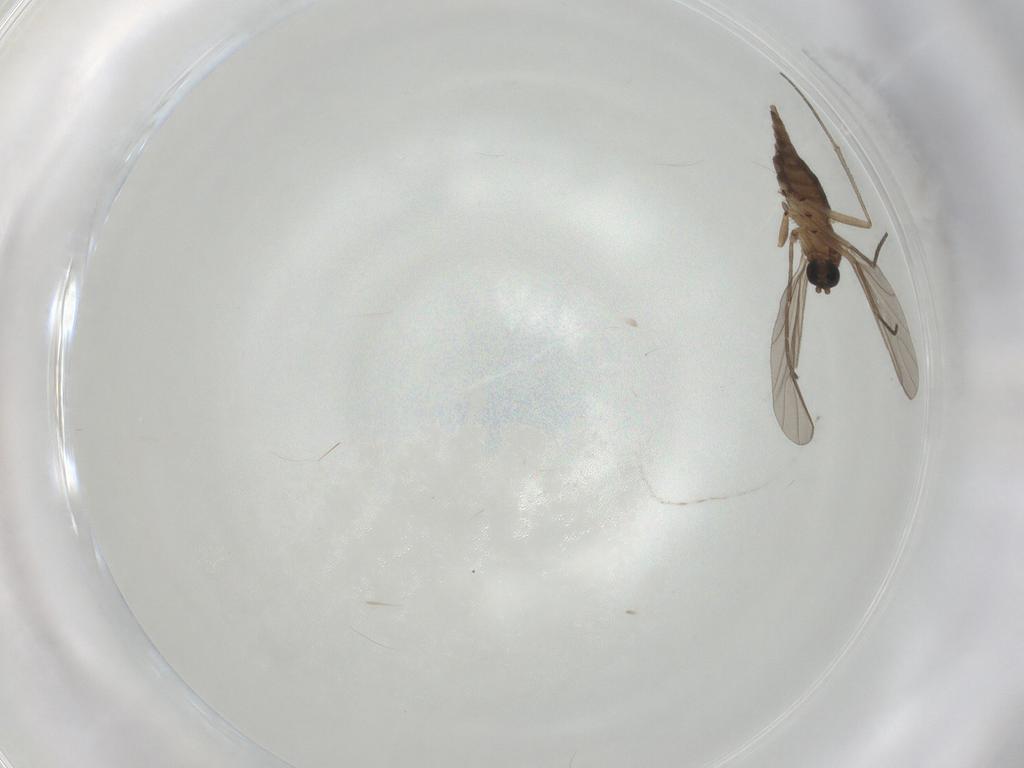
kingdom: Animalia
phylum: Arthropoda
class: Insecta
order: Diptera
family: Sciaridae
